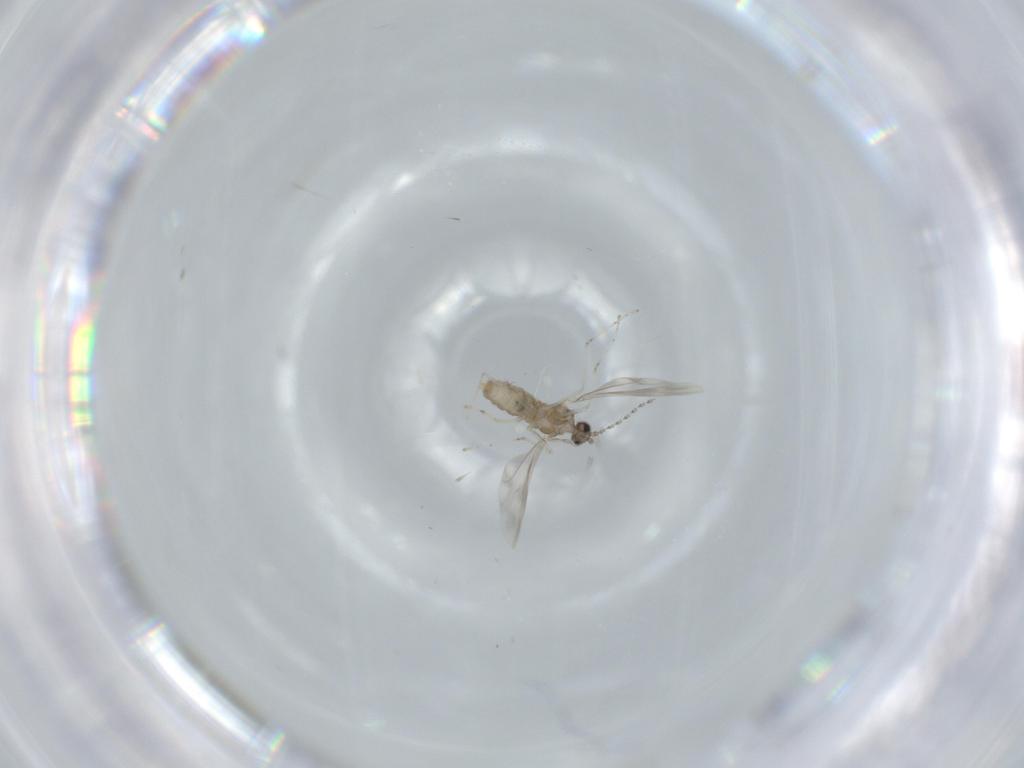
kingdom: Animalia
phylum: Arthropoda
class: Insecta
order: Diptera
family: Cecidomyiidae
